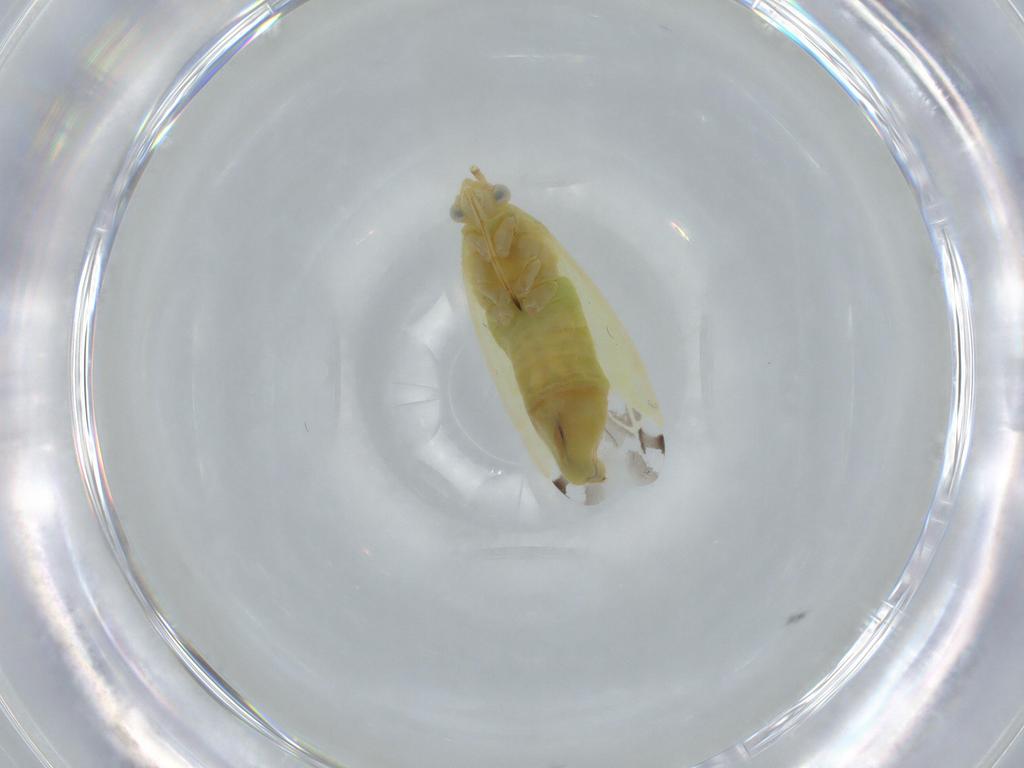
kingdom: Animalia
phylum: Arthropoda
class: Insecta
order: Hemiptera
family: Miridae
